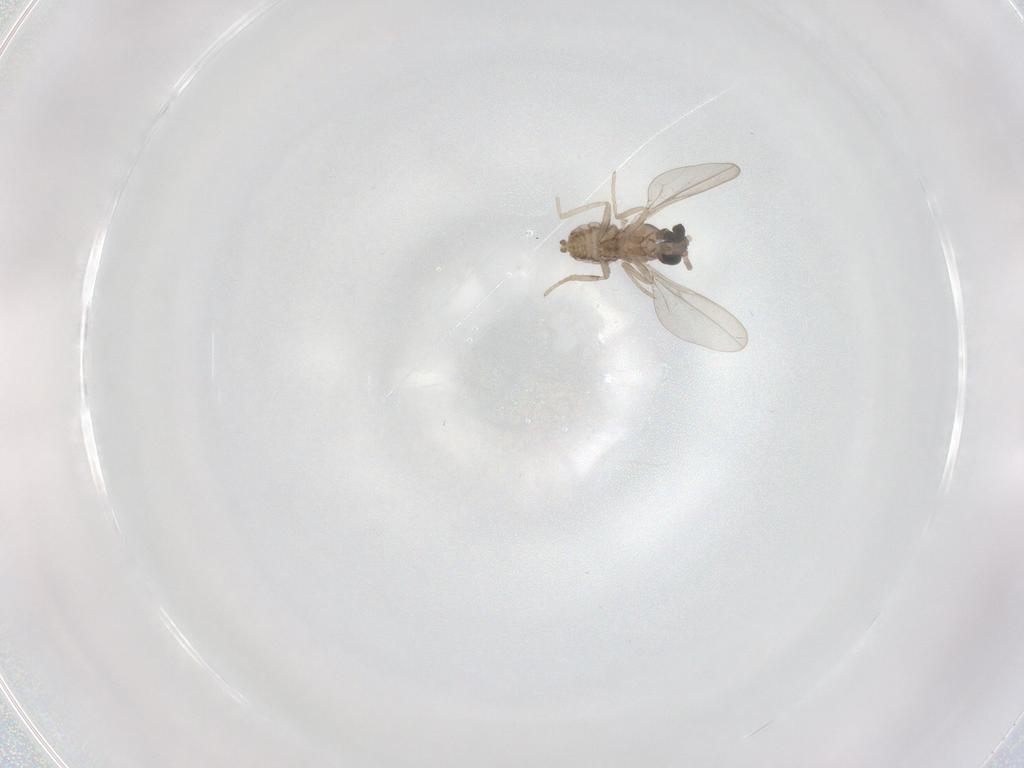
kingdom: Animalia
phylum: Arthropoda
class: Insecta
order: Diptera
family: Cecidomyiidae
